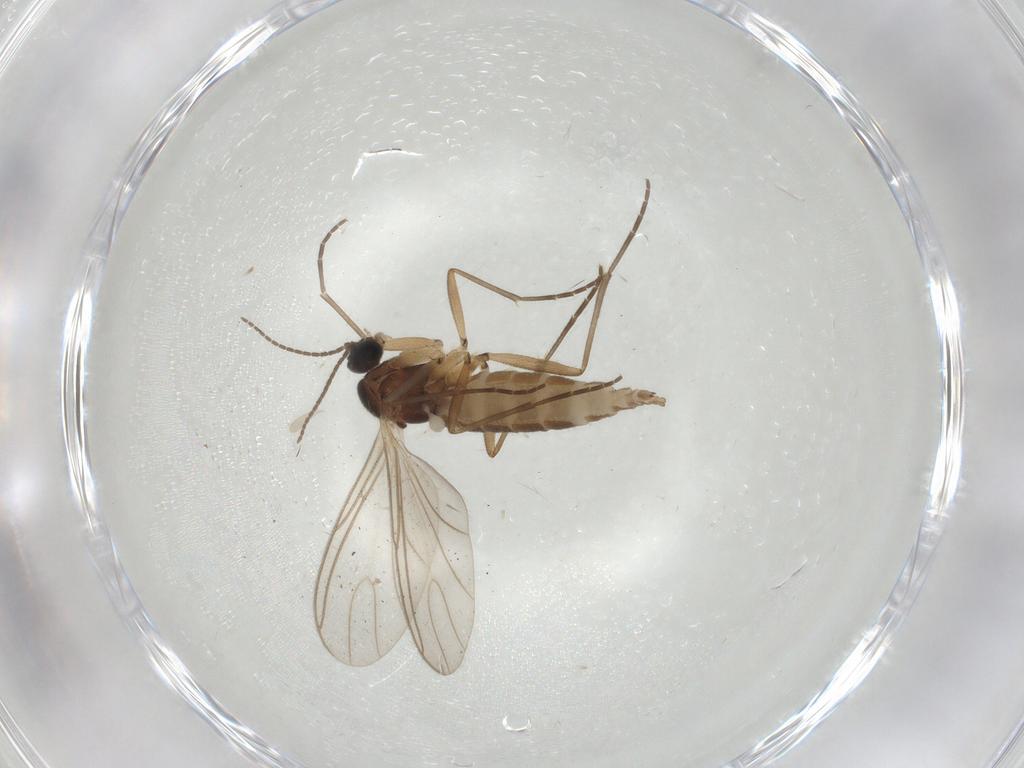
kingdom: Animalia
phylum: Arthropoda
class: Insecta
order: Diptera
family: Sciaridae
